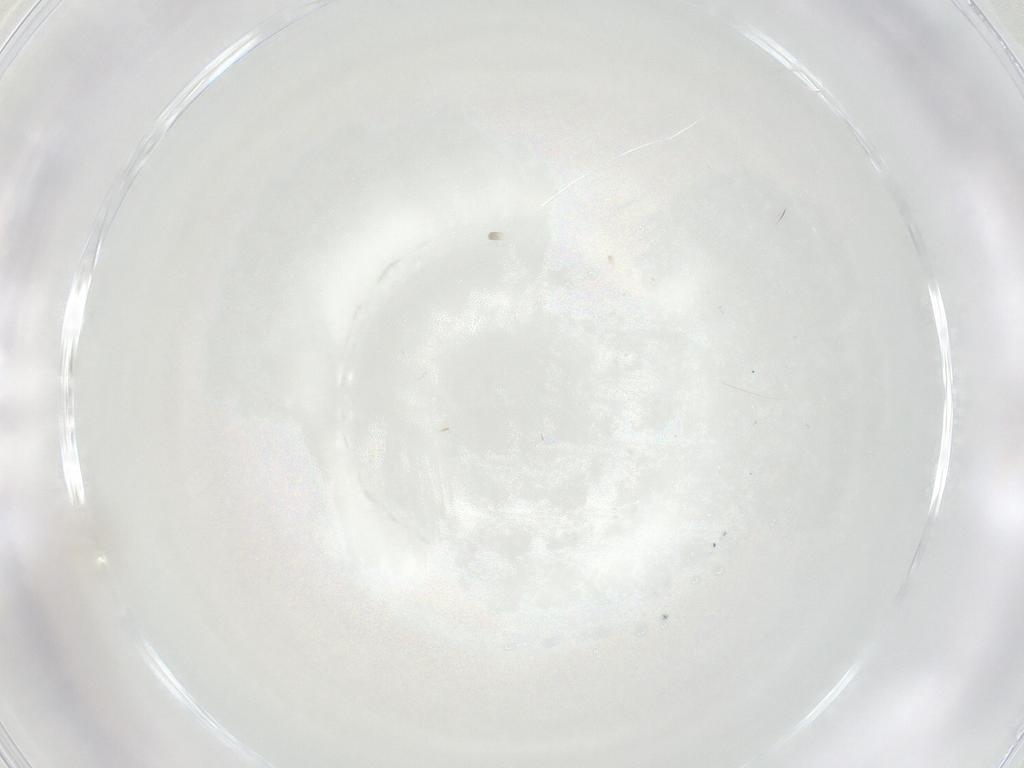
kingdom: Animalia
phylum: Arthropoda
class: Insecta
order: Diptera
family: Cecidomyiidae
